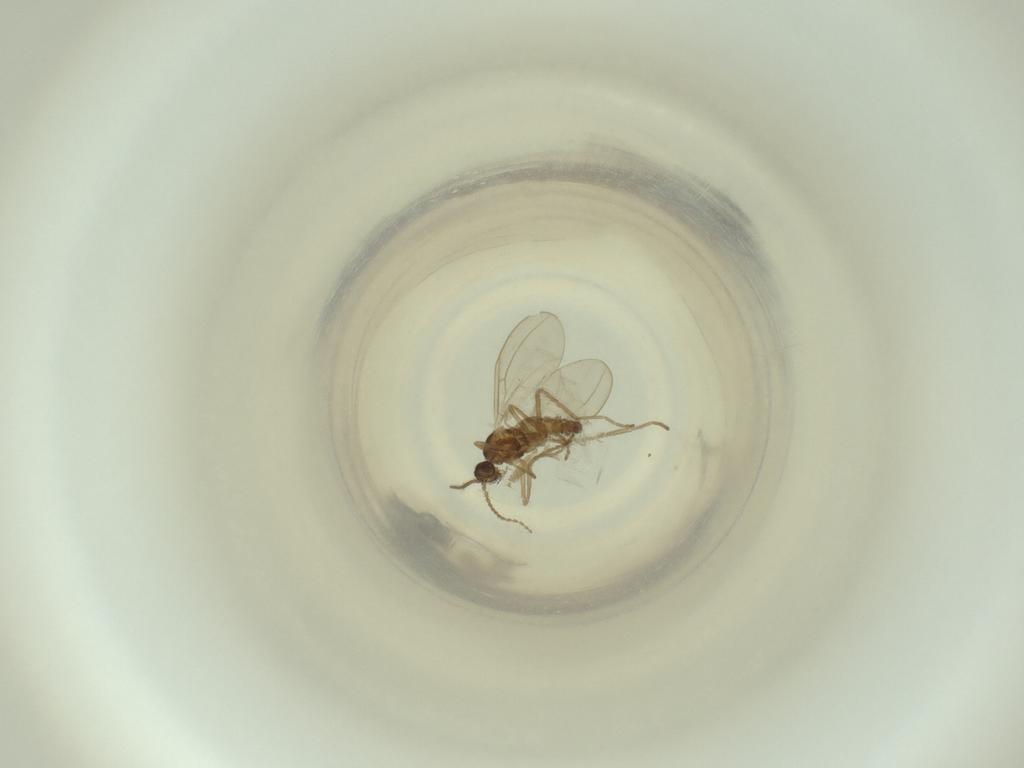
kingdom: Animalia
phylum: Arthropoda
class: Insecta
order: Diptera
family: Cecidomyiidae
